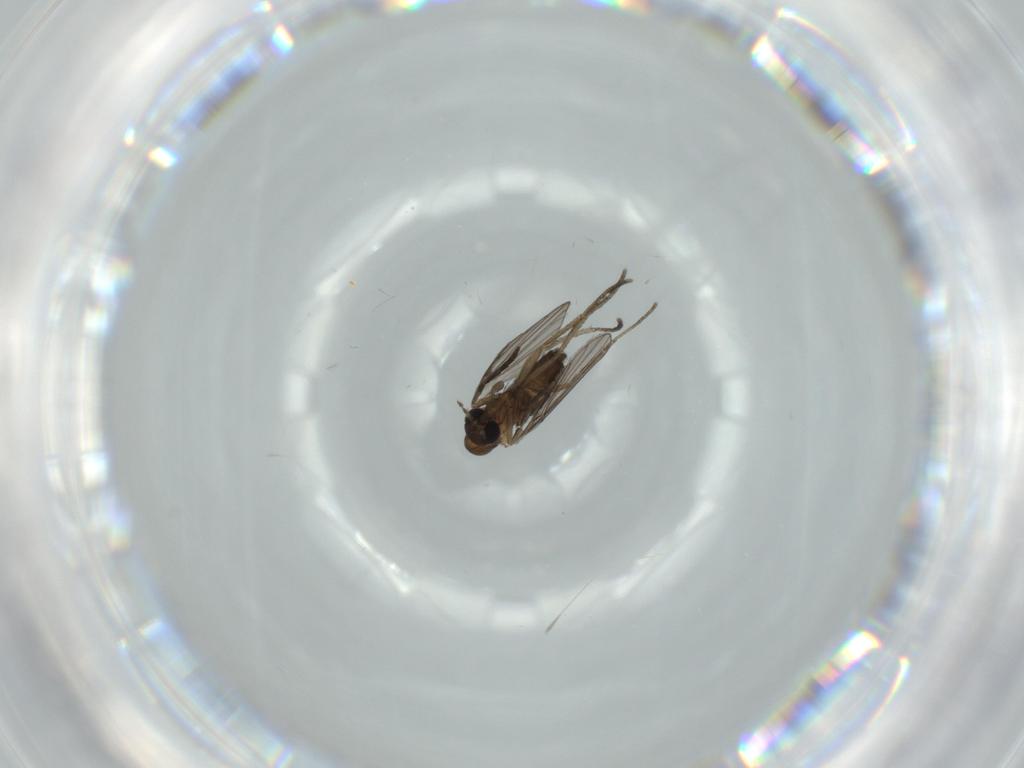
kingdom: Animalia
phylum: Arthropoda
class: Insecta
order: Diptera
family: Psychodidae
